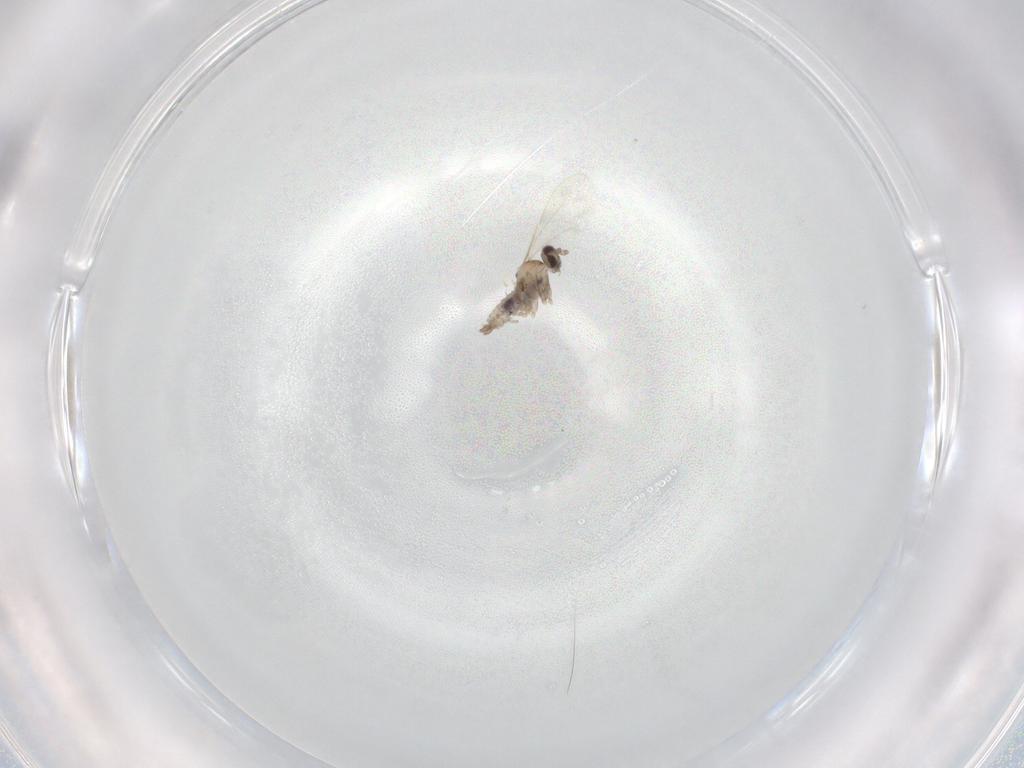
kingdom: Animalia
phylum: Arthropoda
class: Insecta
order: Diptera
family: Cecidomyiidae
